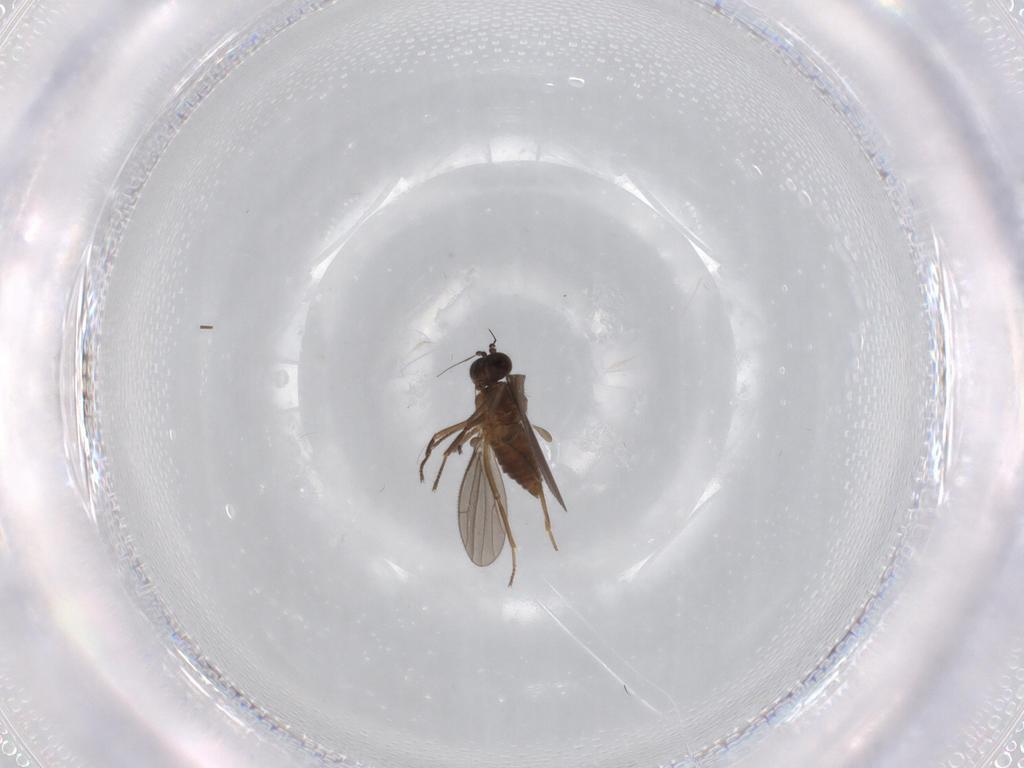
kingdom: Animalia
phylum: Arthropoda
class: Insecta
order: Diptera
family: Empididae
